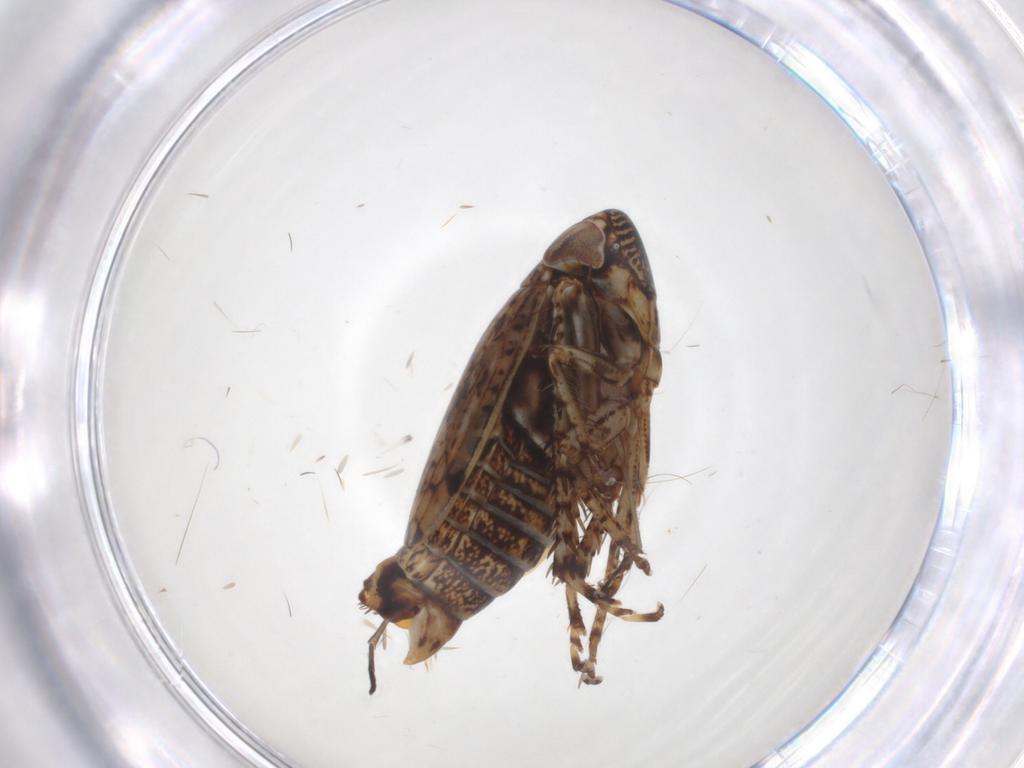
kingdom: Animalia
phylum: Arthropoda
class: Insecta
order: Hemiptera
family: Cicadellidae
